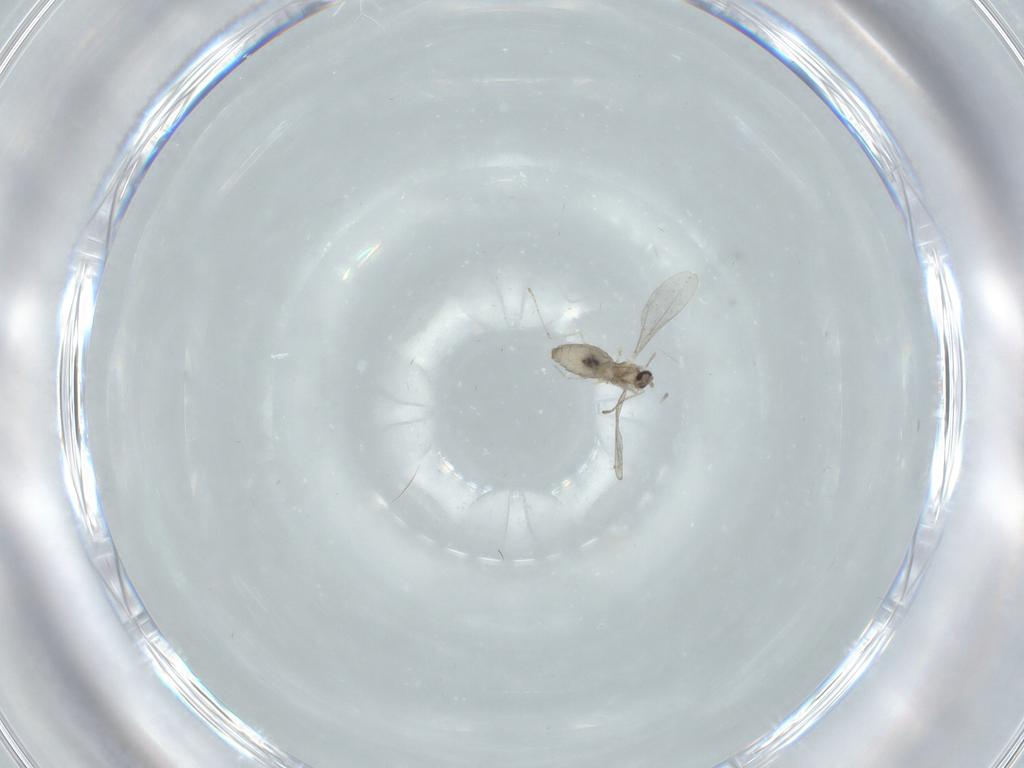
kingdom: Animalia
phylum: Arthropoda
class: Insecta
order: Diptera
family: Cecidomyiidae
